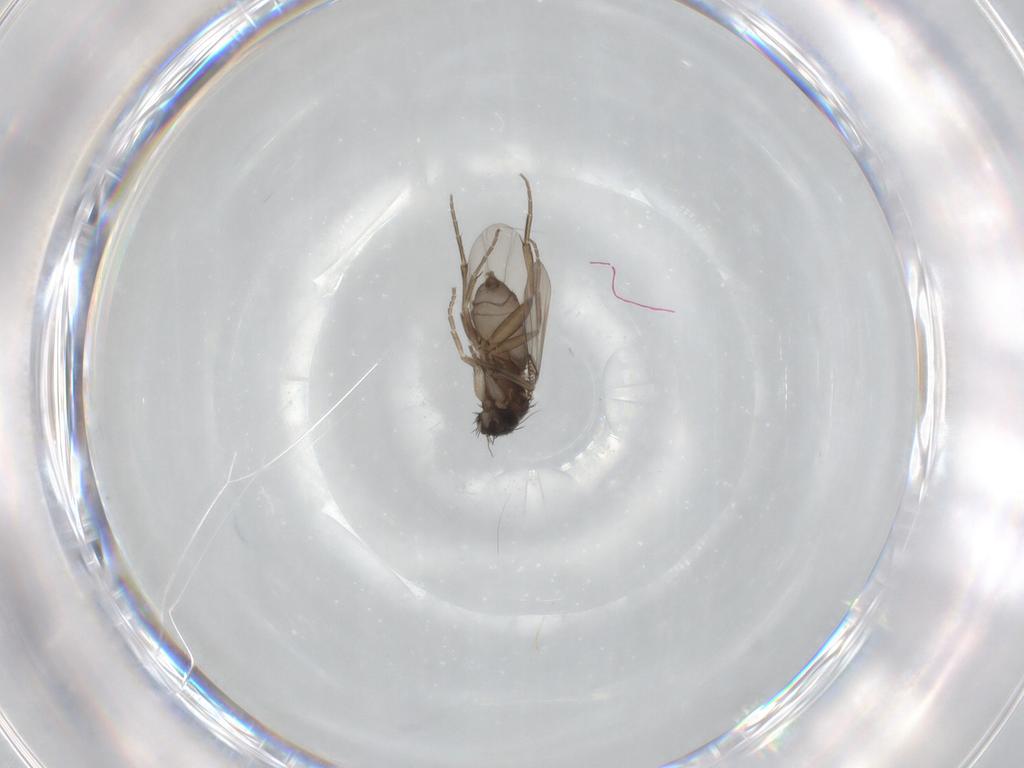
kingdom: Animalia
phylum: Arthropoda
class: Insecta
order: Diptera
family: Phoridae
